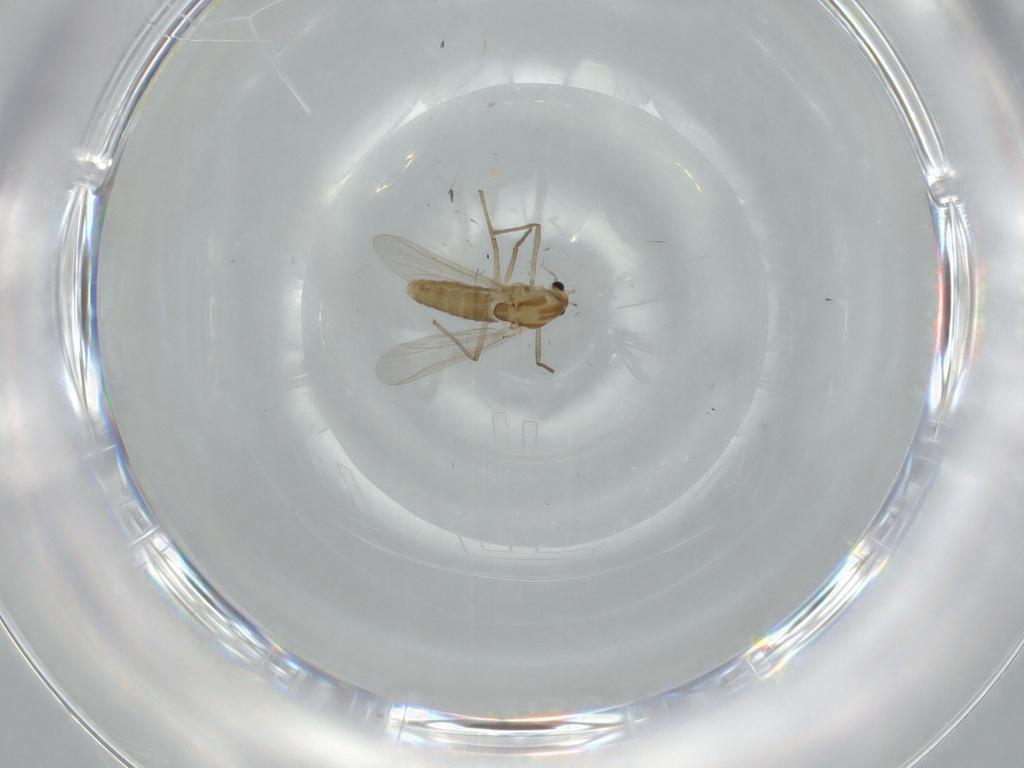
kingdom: Animalia
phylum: Arthropoda
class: Insecta
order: Diptera
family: Chironomidae
